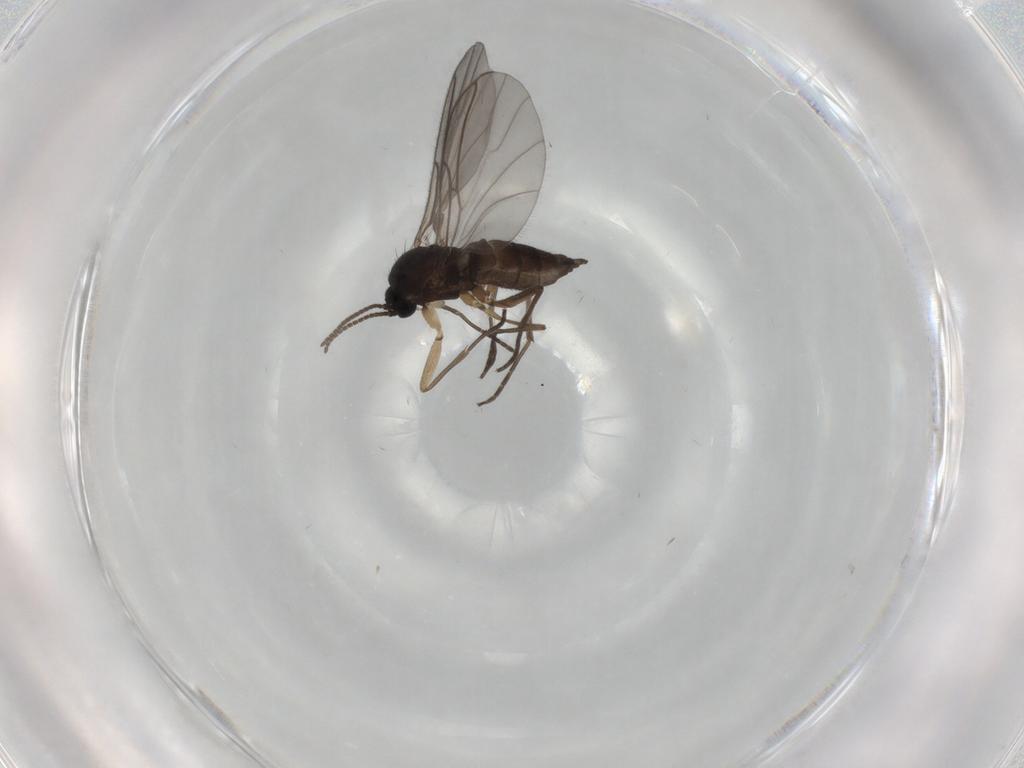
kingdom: Animalia
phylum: Arthropoda
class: Insecta
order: Diptera
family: Sciaridae
